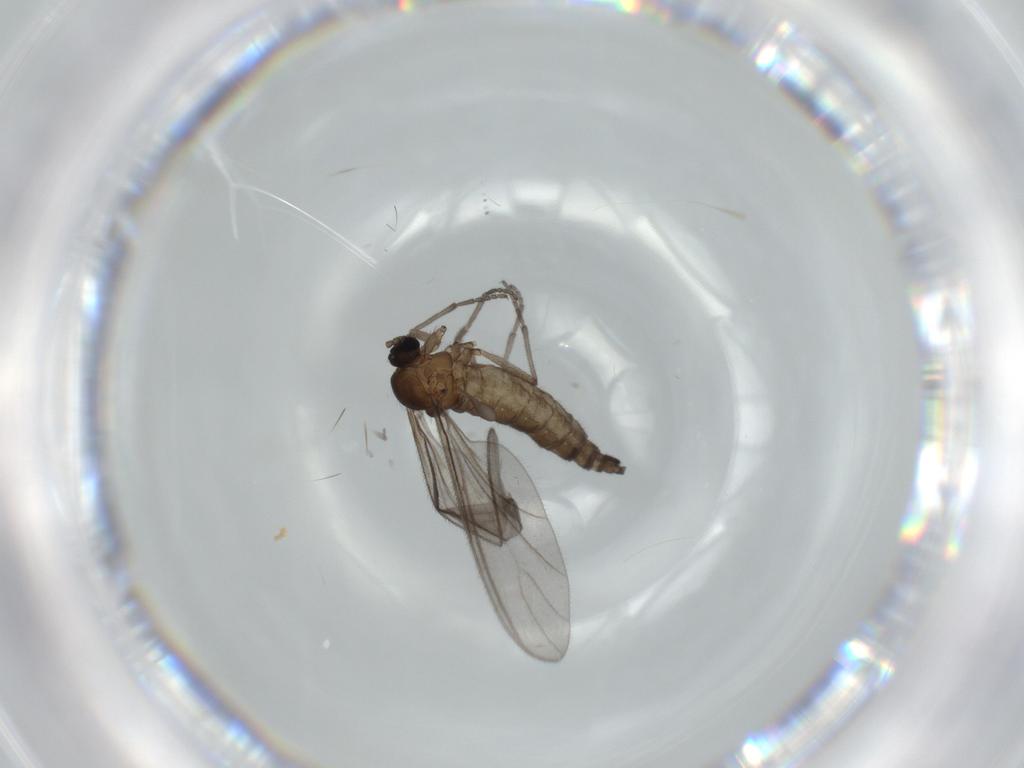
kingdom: Animalia
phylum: Arthropoda
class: Insecta
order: Diptera
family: Sciaridae
